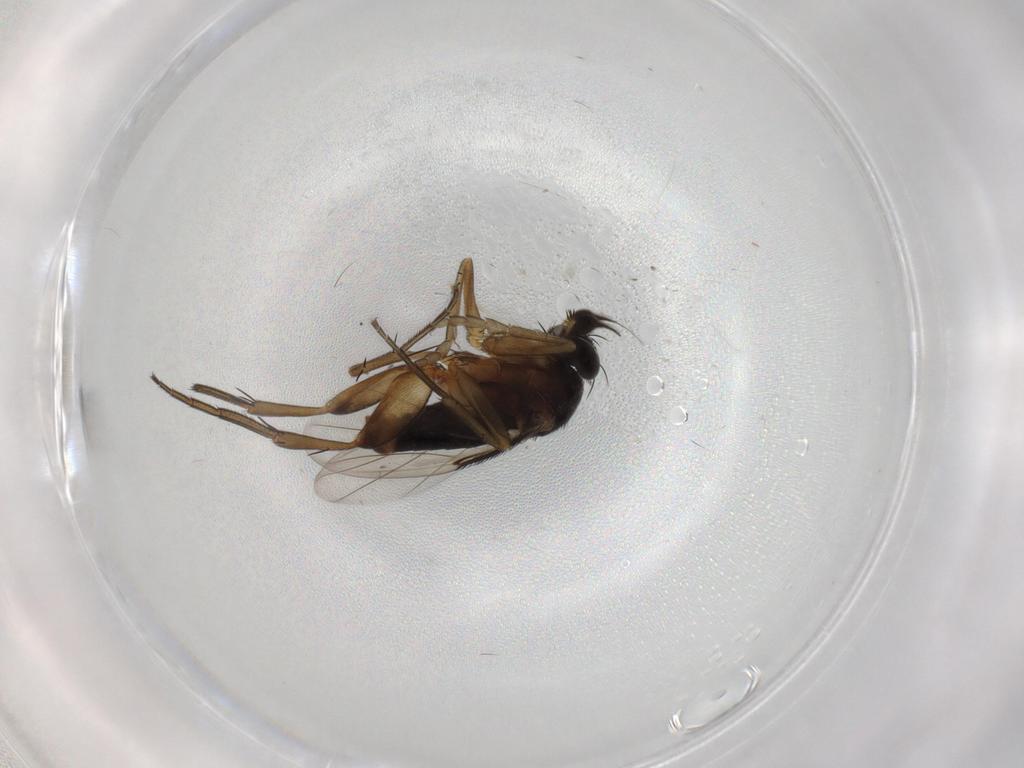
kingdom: Animalia
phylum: Arthropoda
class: Insecta
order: Diptera
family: Phoridae
